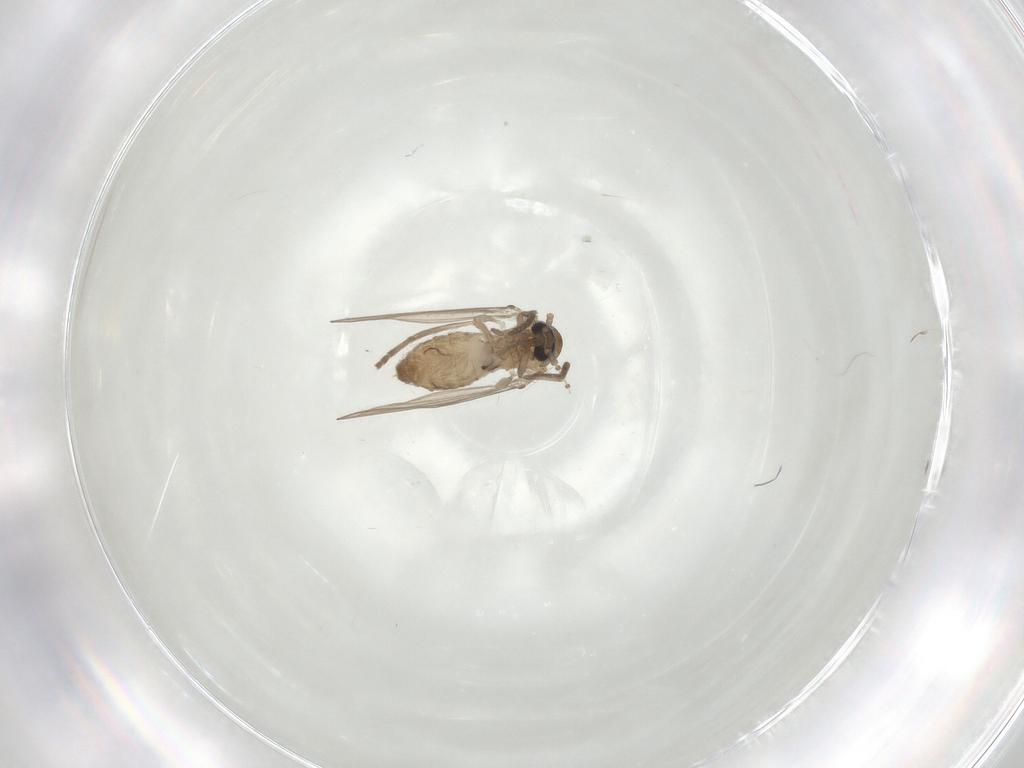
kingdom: Animalia
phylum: Arthropoda
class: Insecta
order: Diptera
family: Psychodidae
